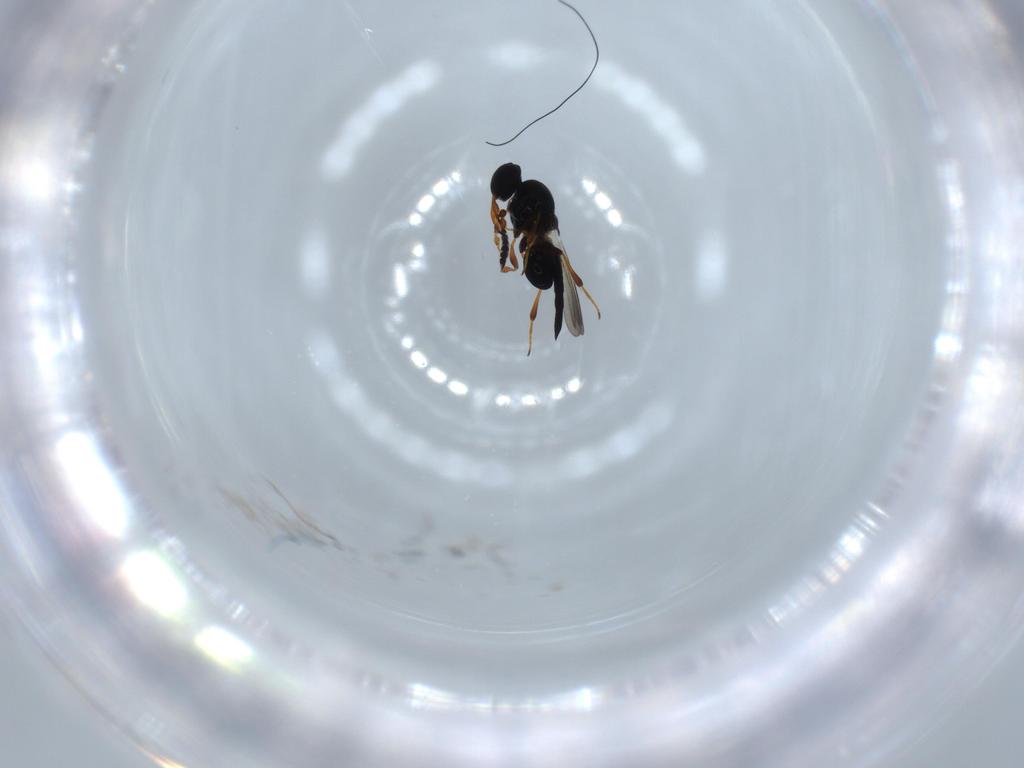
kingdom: Animalia
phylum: Arthropoda
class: Insecta
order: Hymenoptera
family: Platygastridae
